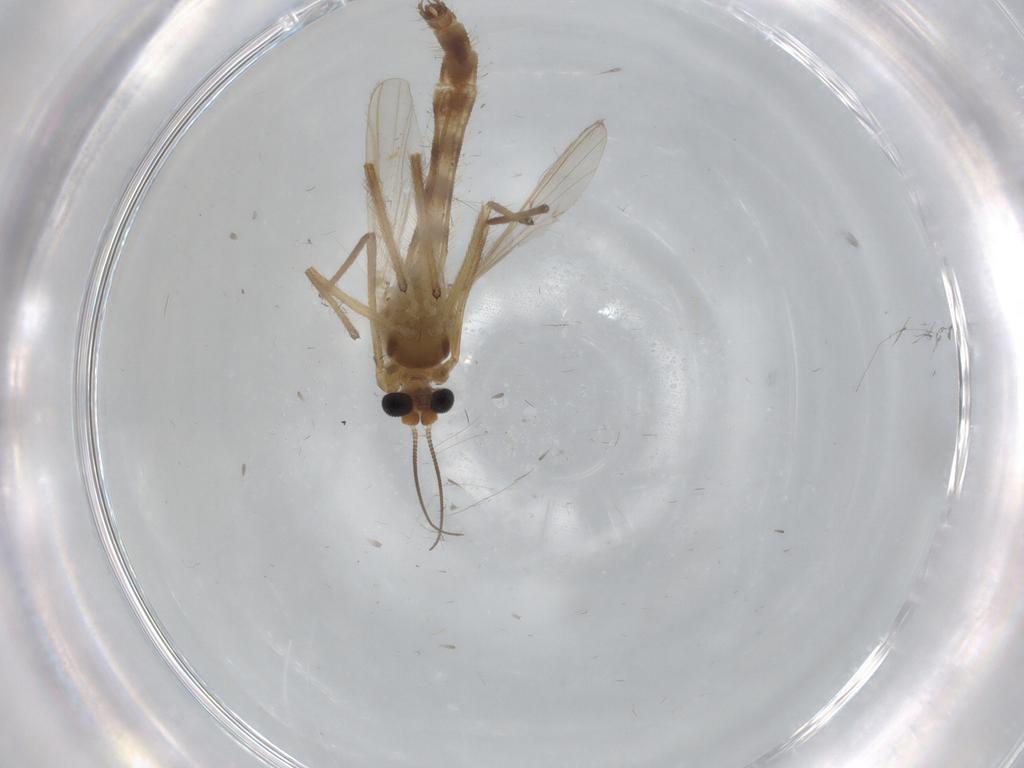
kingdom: Animalia
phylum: Arthropoda
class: Insecta
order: Diptera
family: Chironomidae
